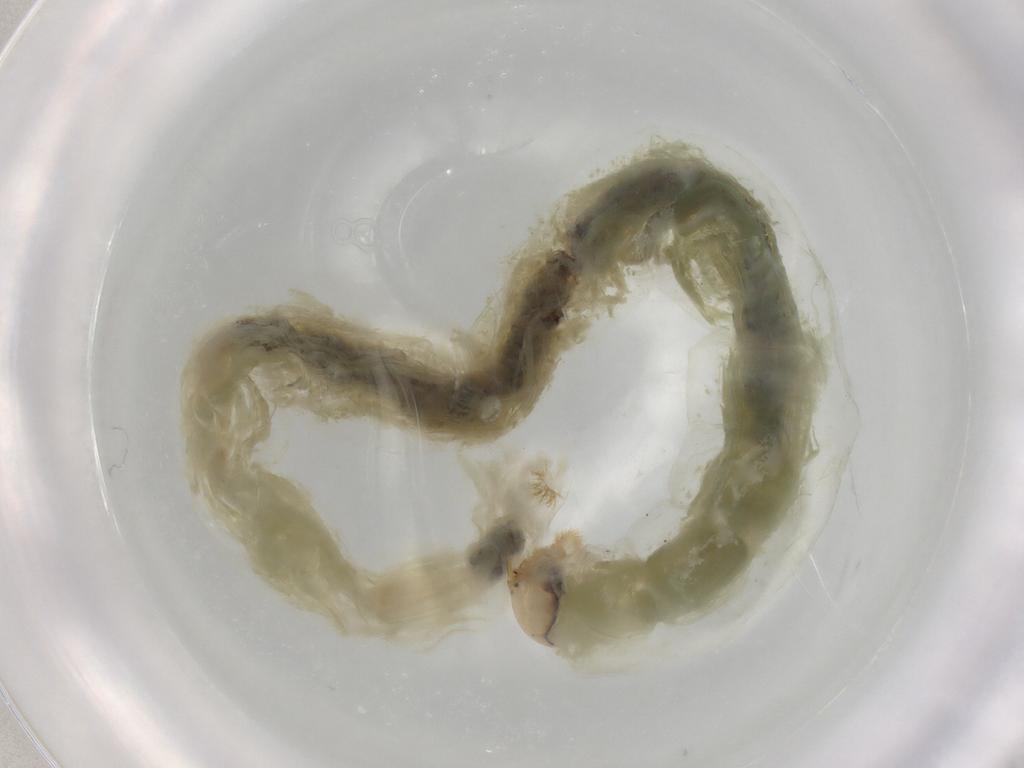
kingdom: Animalia
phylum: Arthropoda
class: Insecta
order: Diptera
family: Chironomidae
